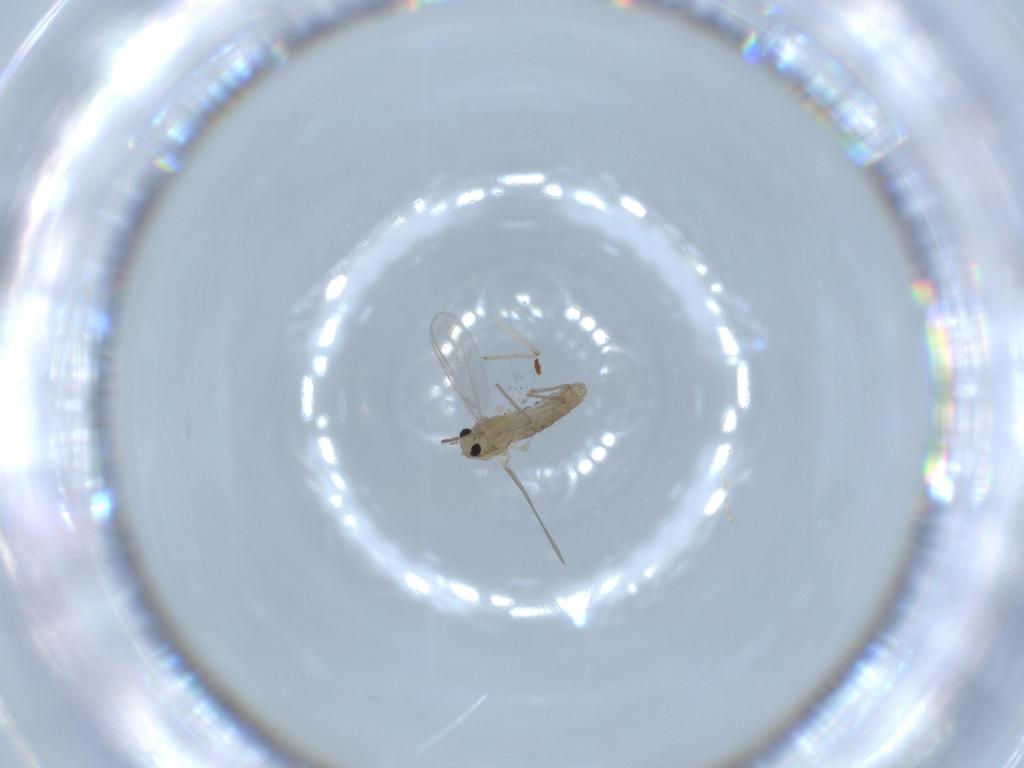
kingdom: Animalia
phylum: Arthropoda
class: Insecta
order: Diptera
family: Chironomidae
